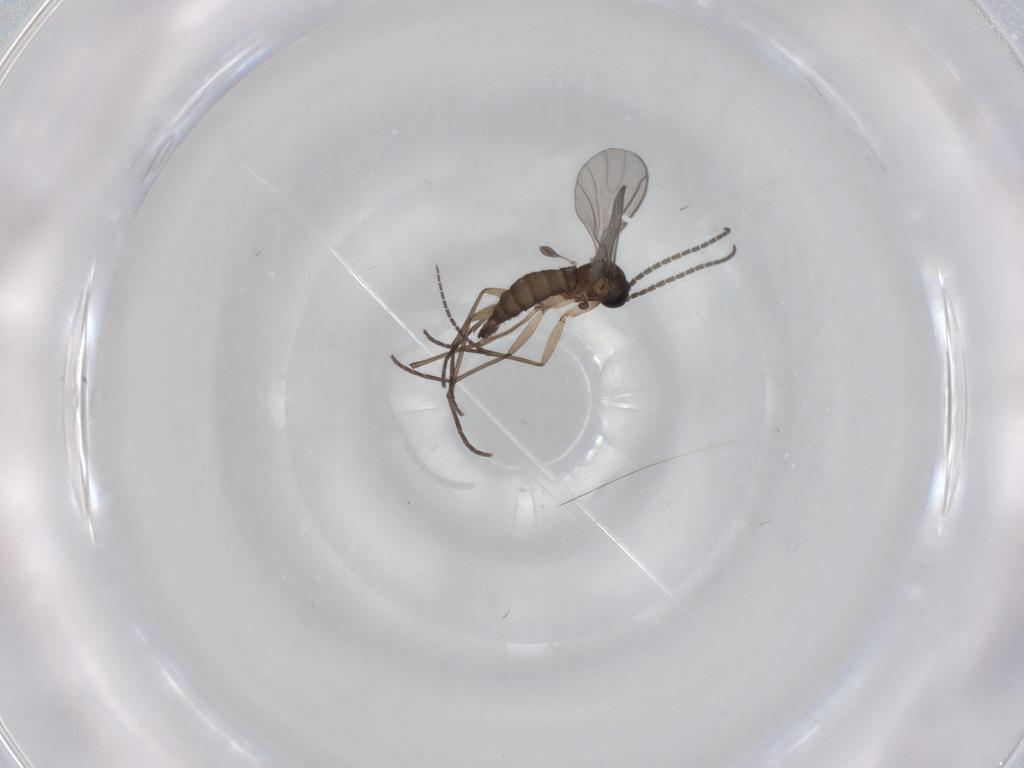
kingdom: Animalia
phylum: Arthropoda
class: Insecta
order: Diptera
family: Sciaridae
